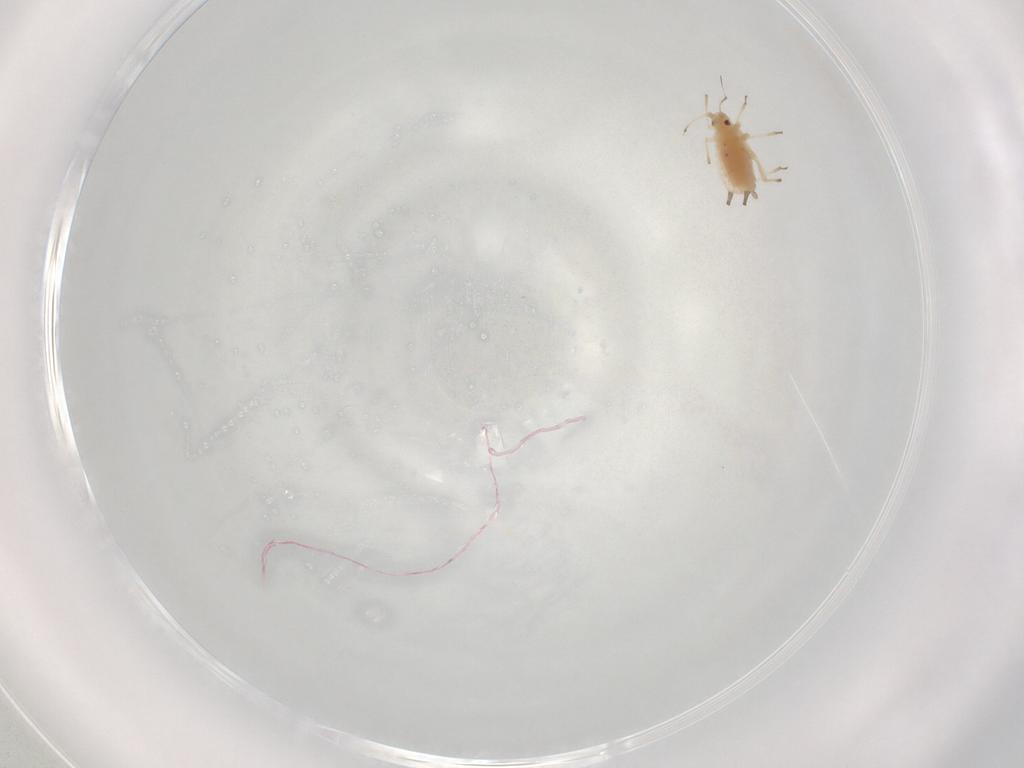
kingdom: Animalia
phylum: Arthropoda
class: Insecta
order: Hemiptera
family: Aphididae
